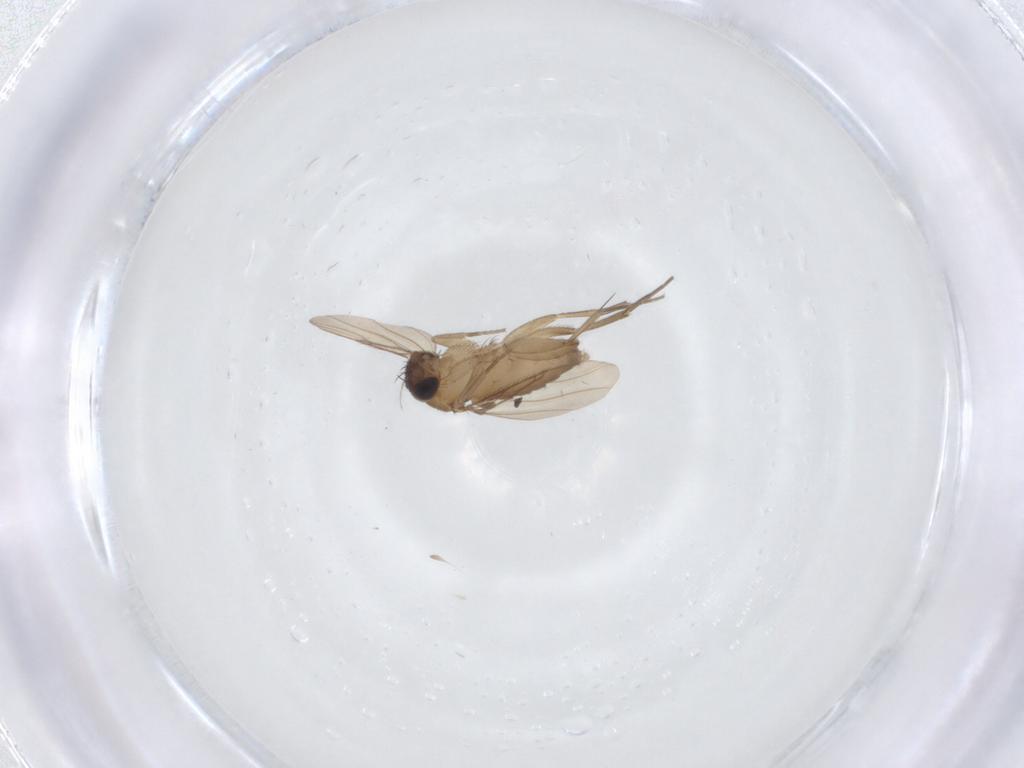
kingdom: Animalia
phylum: Arthropoda
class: Insecta
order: Diptera
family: Phoridae
